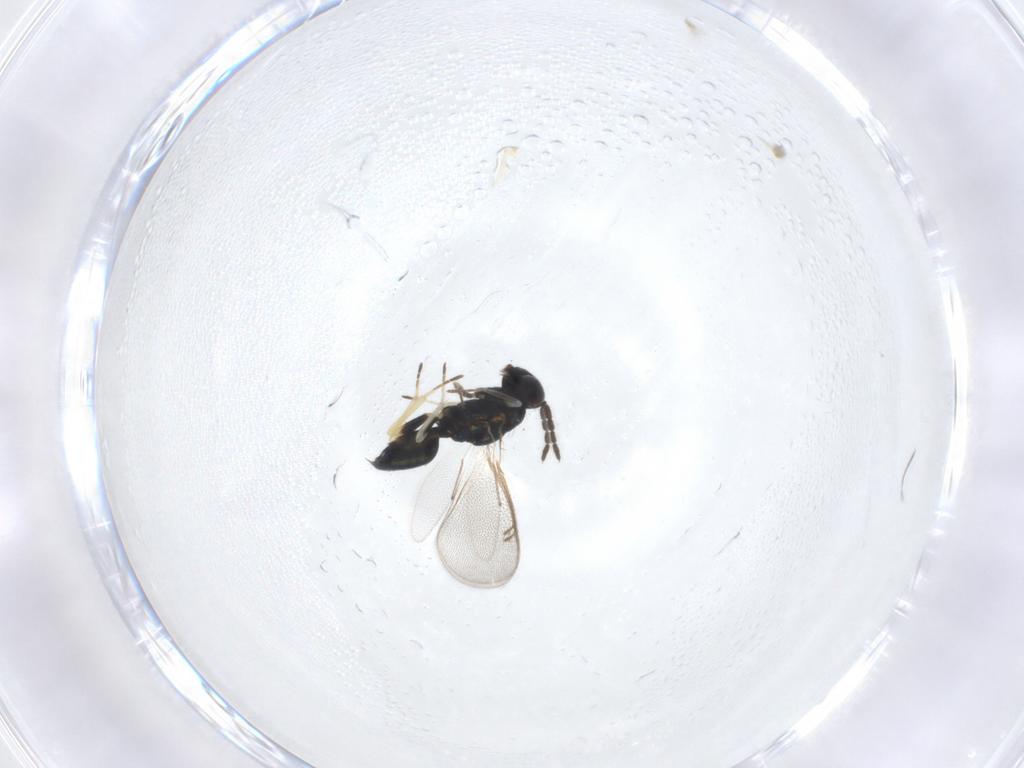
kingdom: Animalia
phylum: Arthropoda
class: Insecta
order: Hymenoptera
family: Eulophidae
